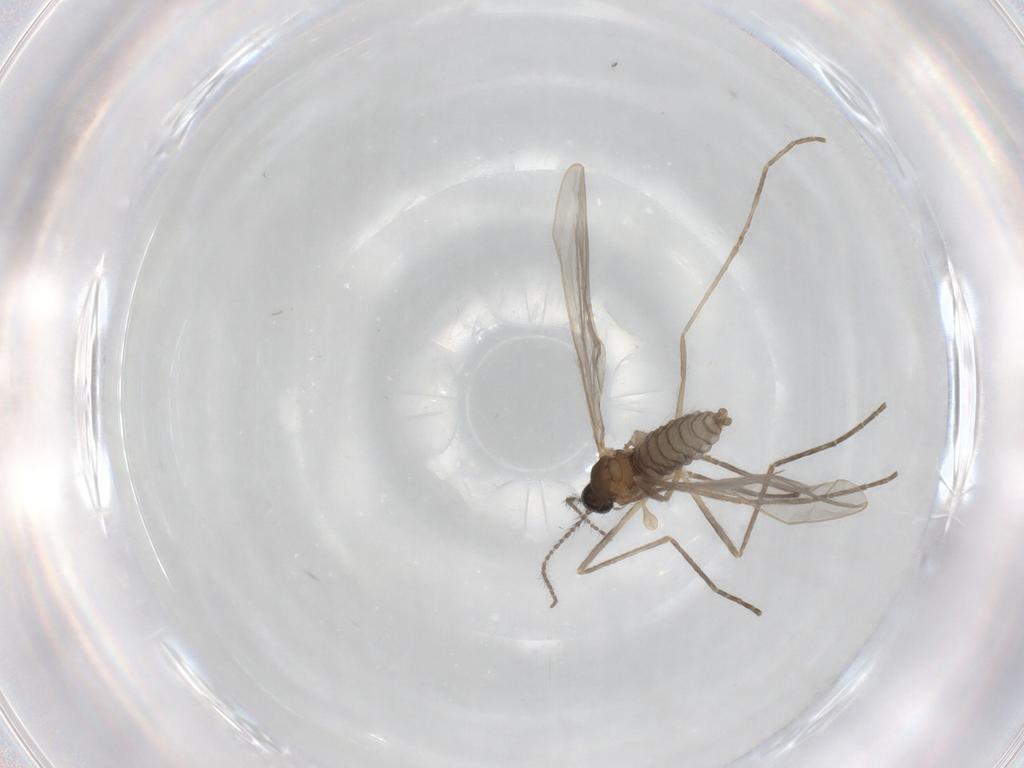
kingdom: Animalia
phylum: Arthropoda
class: Insecta
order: Diptera
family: Cecidomyiidae
